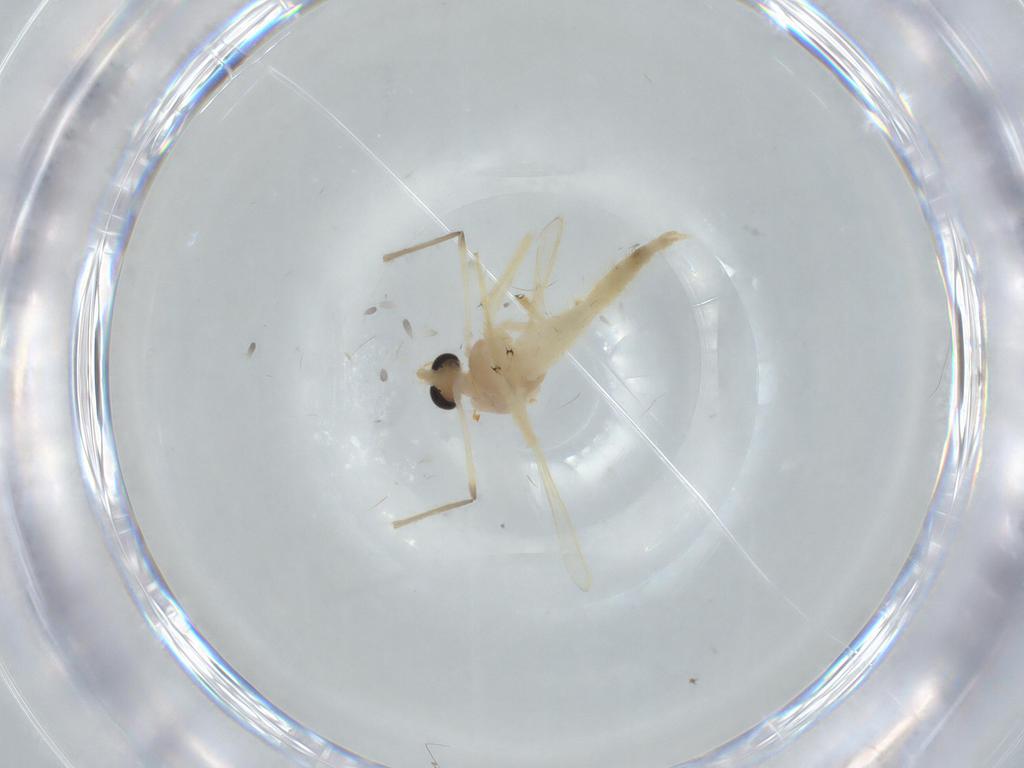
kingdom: Animalia
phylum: Arthropoda
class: Insecta
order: Diptera
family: Chironomidae
